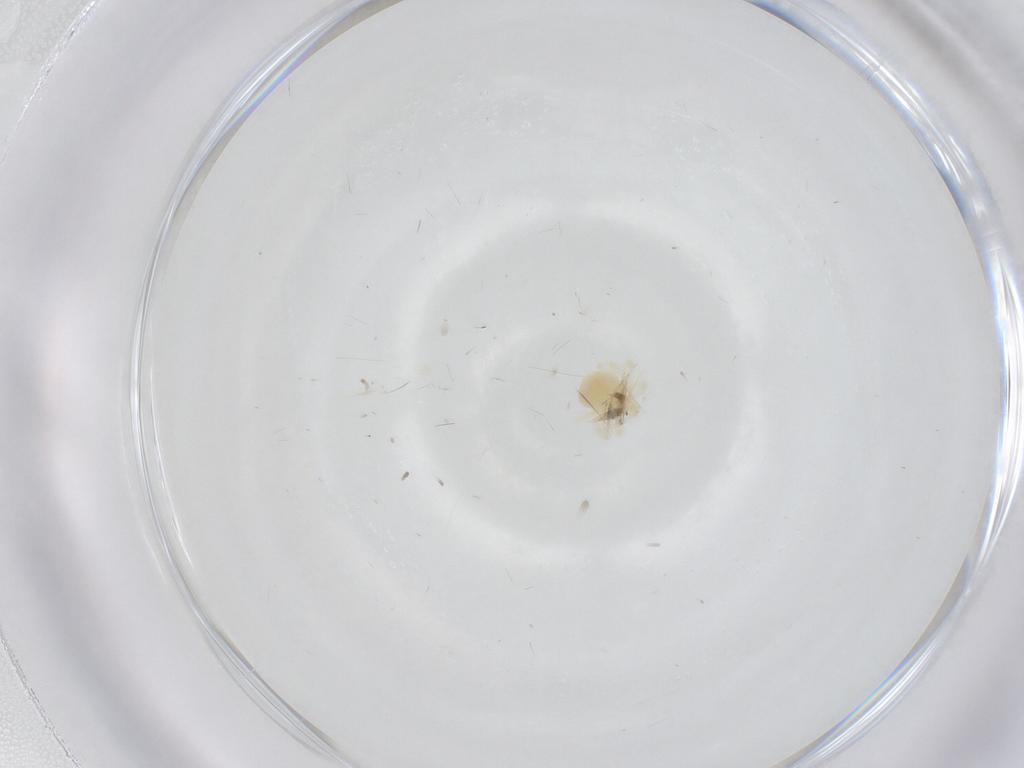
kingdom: Animalia
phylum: Arthropoda
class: Arachnida
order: Trombidiformes
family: Anystidae
